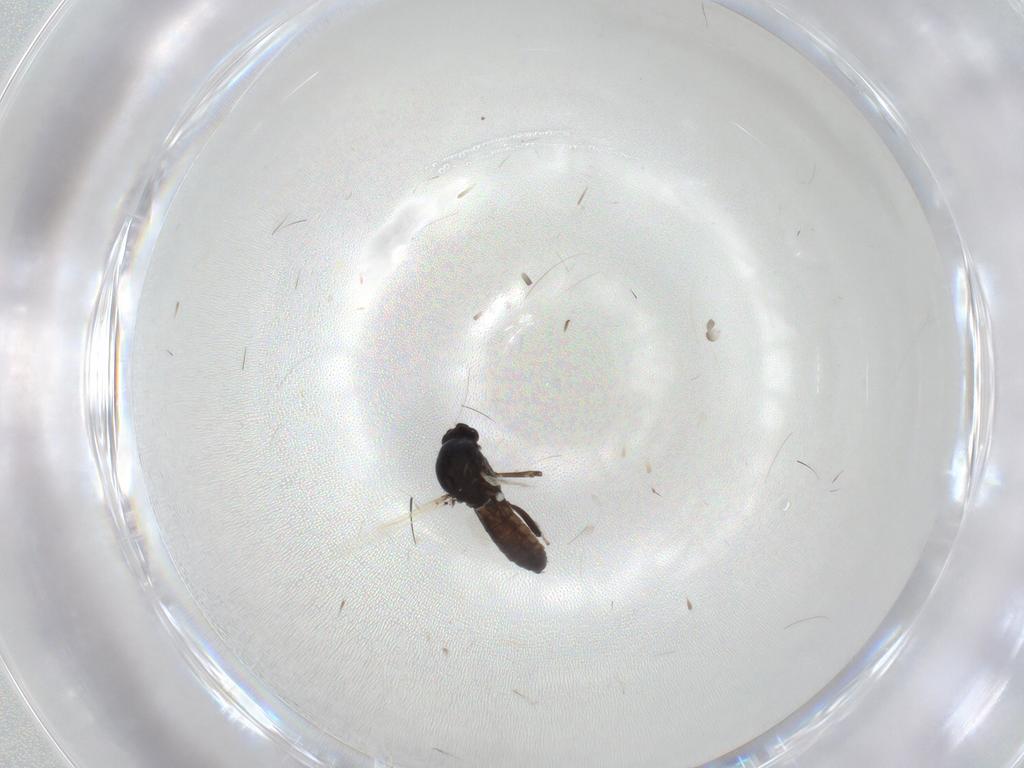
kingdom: Animalia
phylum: Arthropoda
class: Insecta
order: Diptera
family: Ceratopogonidae
